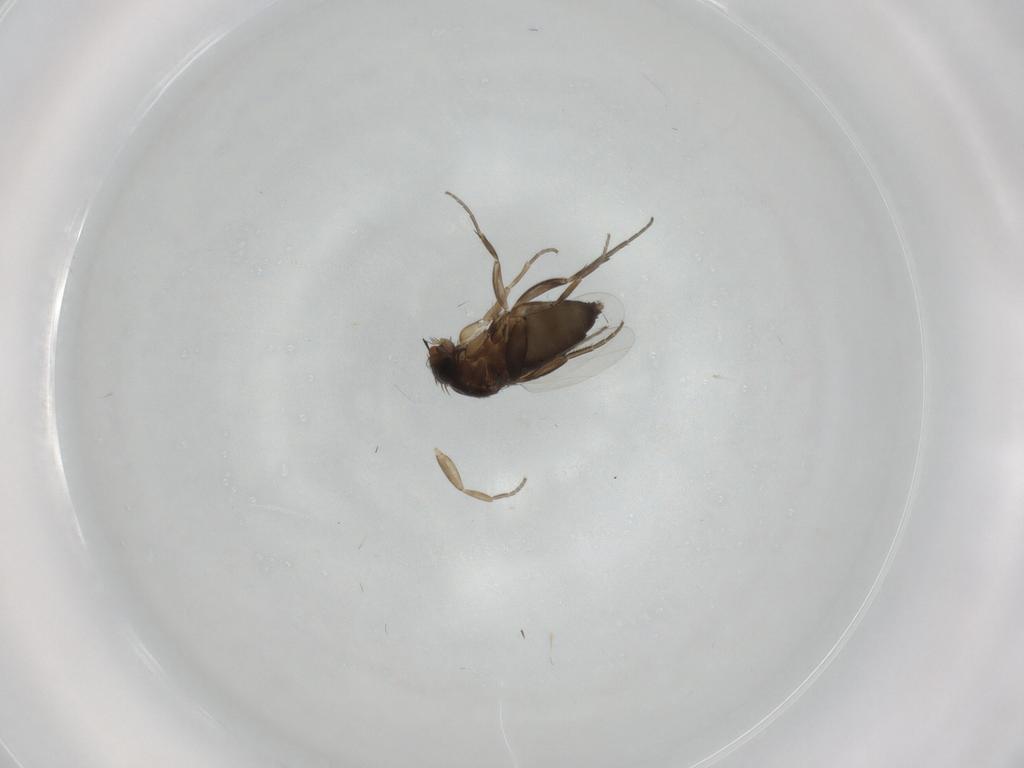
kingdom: Animalia
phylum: Arthropoda
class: Insecta
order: Diptera
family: Phoridae
